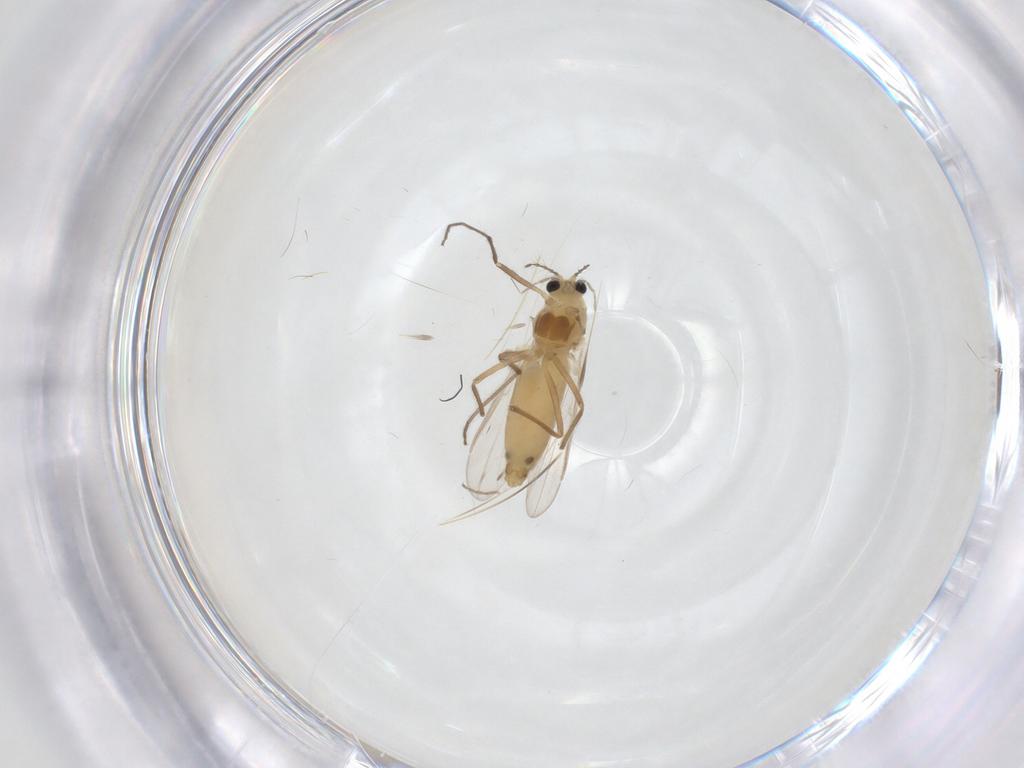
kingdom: Animalia
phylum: Arthropoda
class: Insecta
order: Diptera
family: Chironomidae
